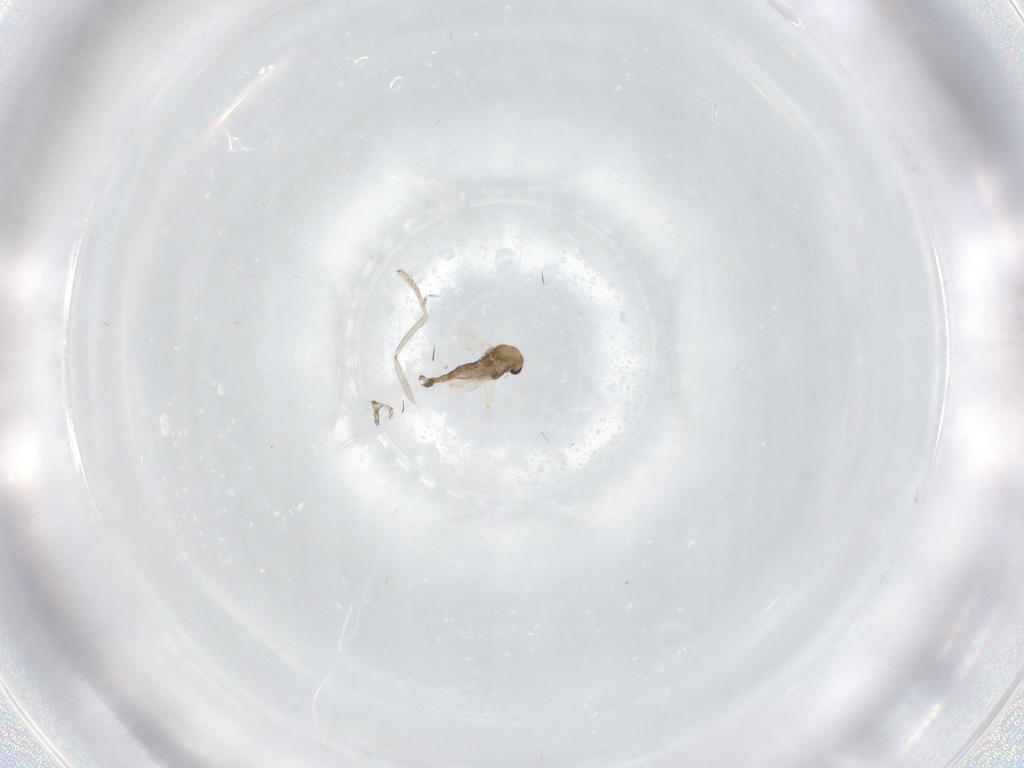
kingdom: Animalia
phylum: Arthropoda
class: Insecta
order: Diptera
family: Chironomidae
